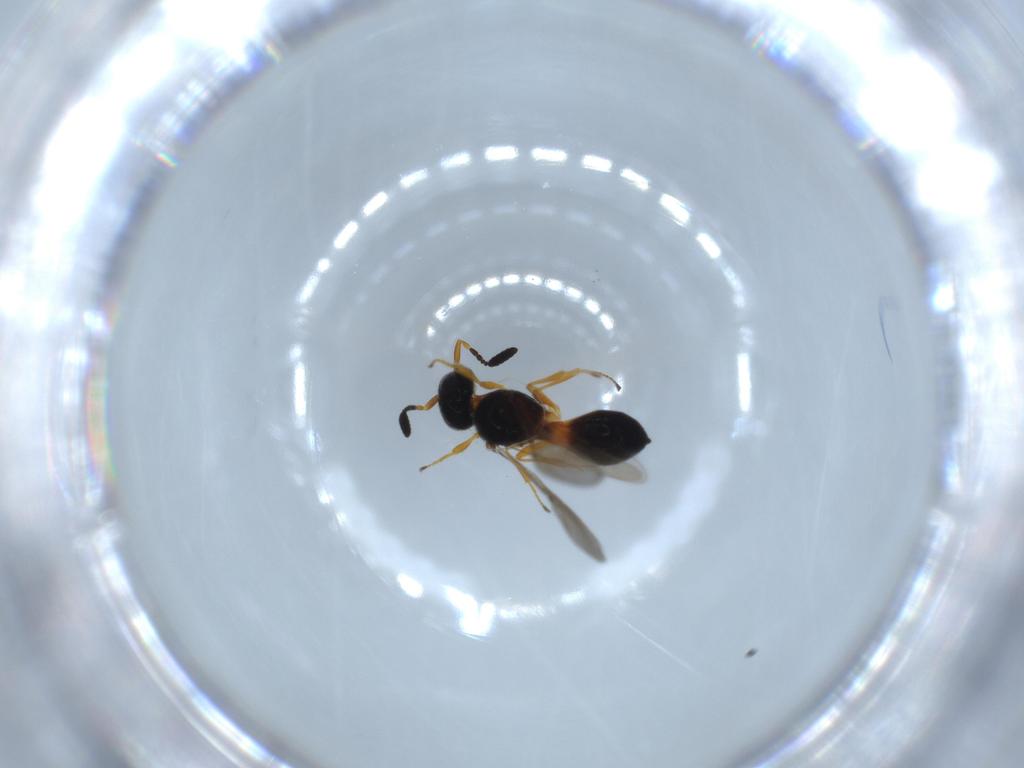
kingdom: Animalia
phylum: Arthropoda
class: Insecta
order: Hymenoptera
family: Scelionidae
